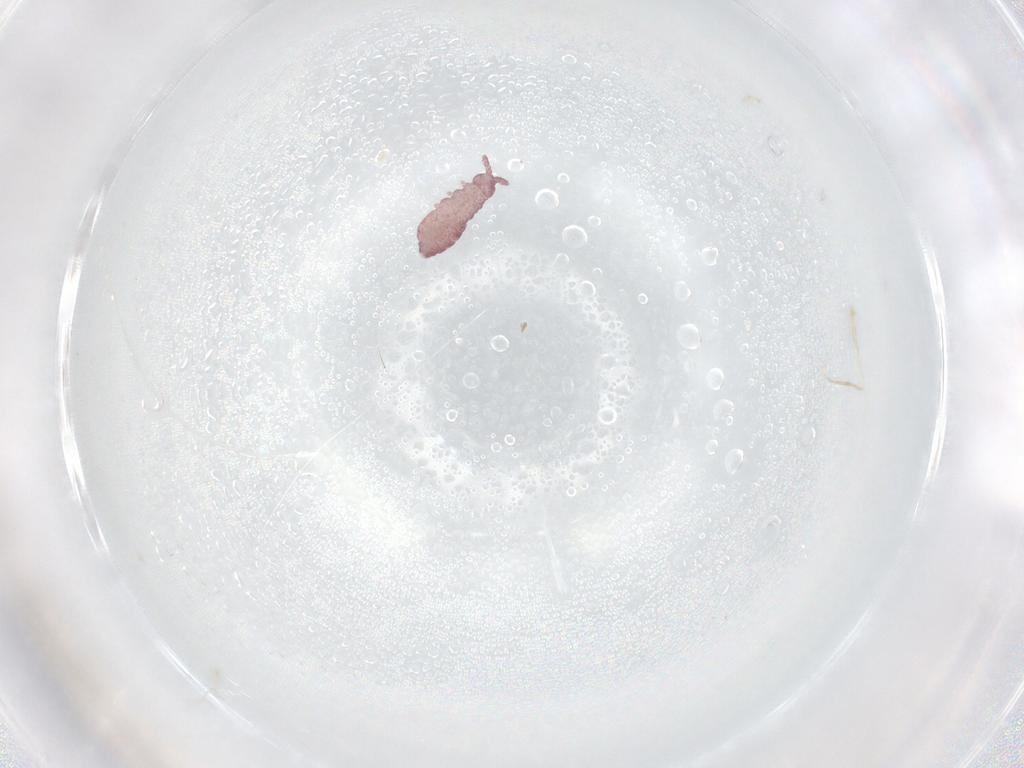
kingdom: Animalia
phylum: Arthropoda
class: Collembola
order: Poduromorpha
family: Hypogastruridae
